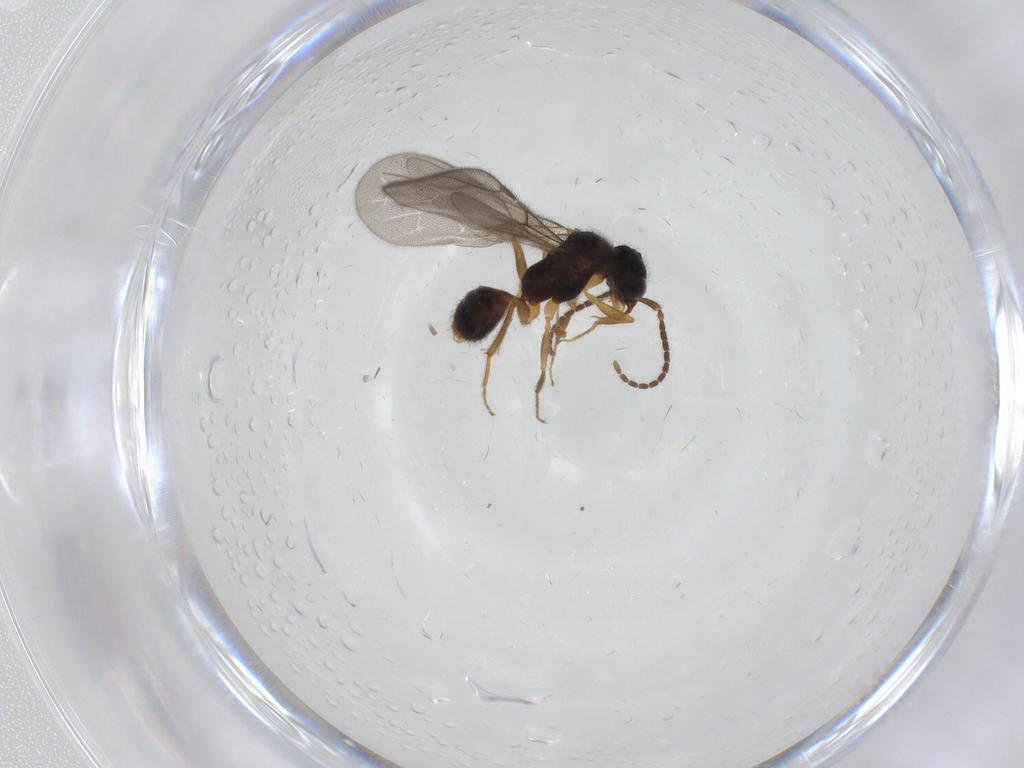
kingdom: Animalia
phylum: Arthropoda
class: Insecta
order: Hymenoptera
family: Bethylidae
